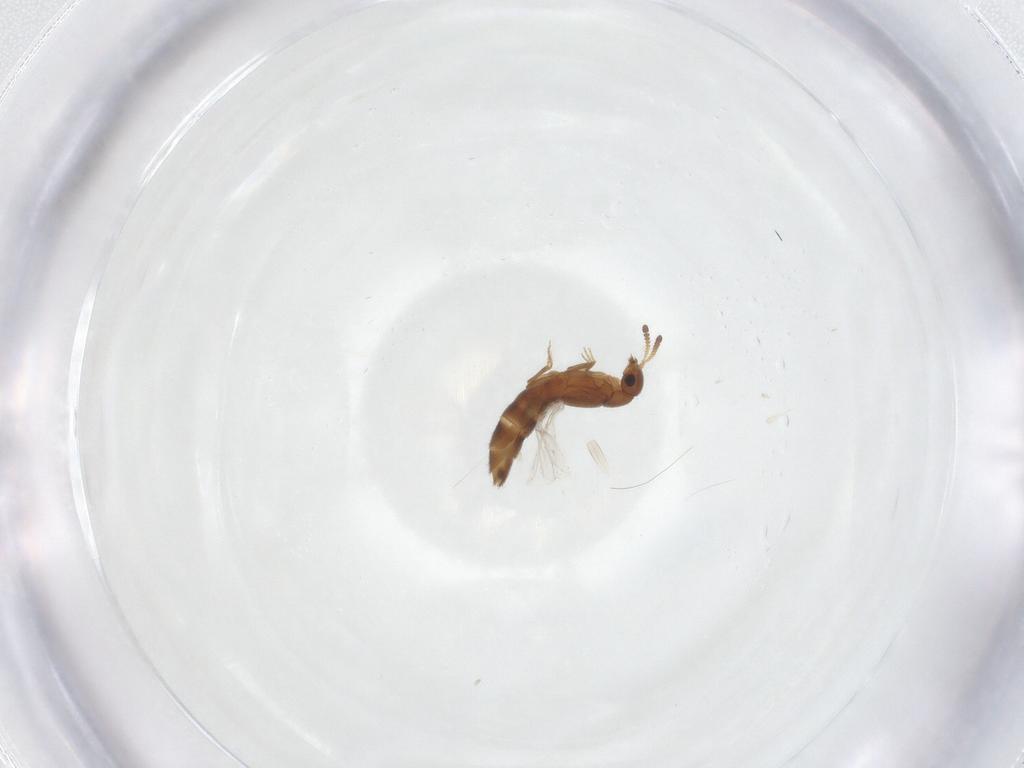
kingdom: Animalia
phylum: Arthropoda
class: Insecta
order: Coleoptera
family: Staphylinidae
